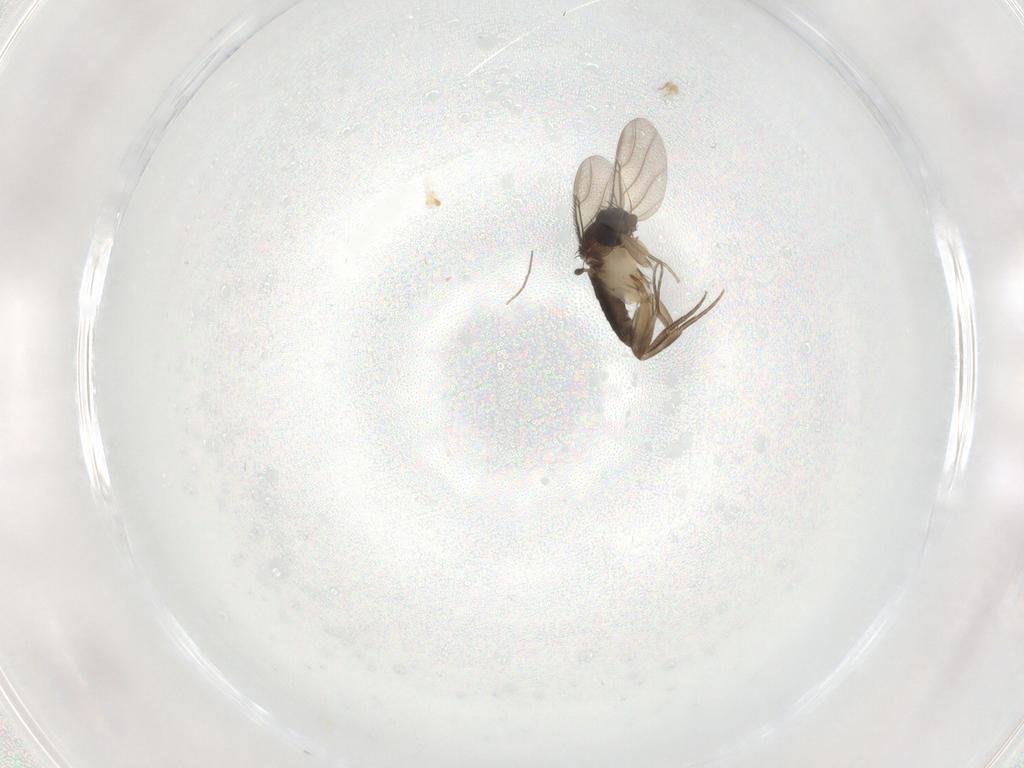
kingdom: Animalia
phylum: Arthropoda
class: Insecta
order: Diptera
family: Phoridae
